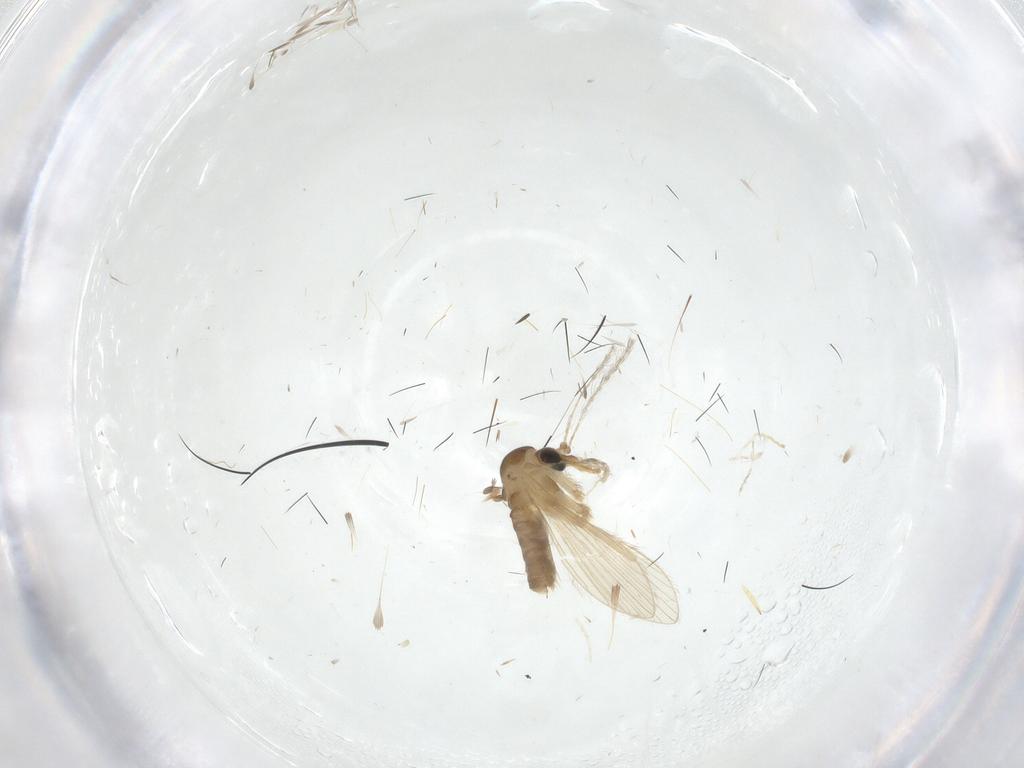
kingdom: Animalia
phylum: Arthropoda
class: Insecta
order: Diptera
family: Psychodidae
